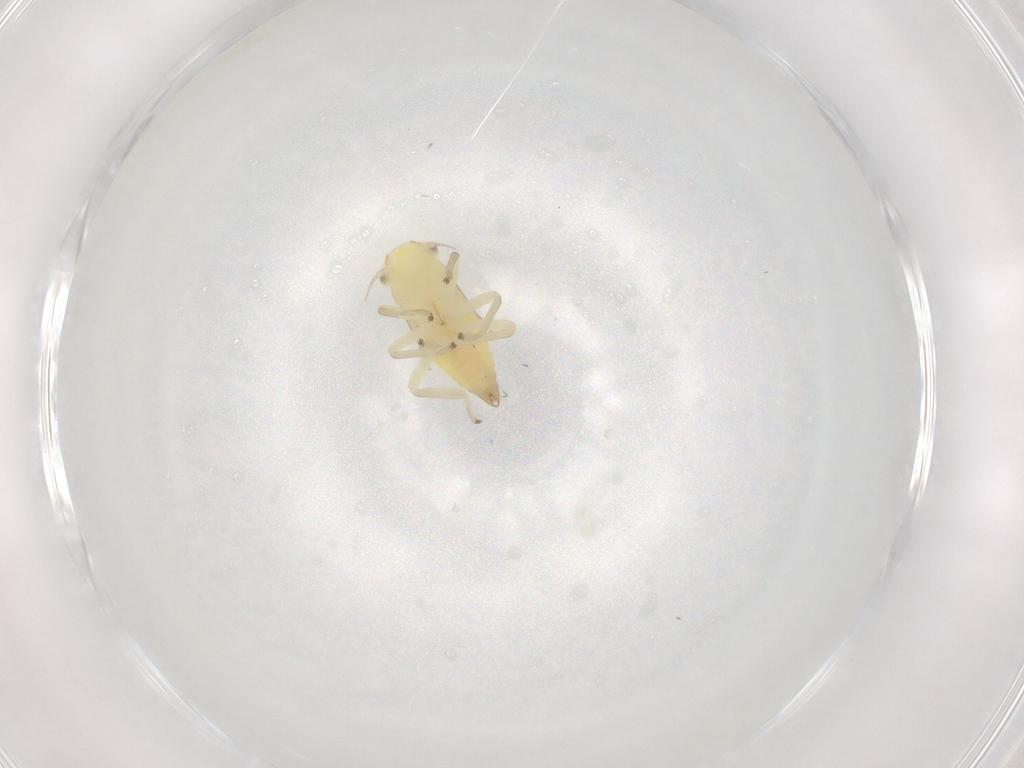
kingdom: Animalia
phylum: Arthropoda
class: Insecta
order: Hemiptera
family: Cicadellidae
